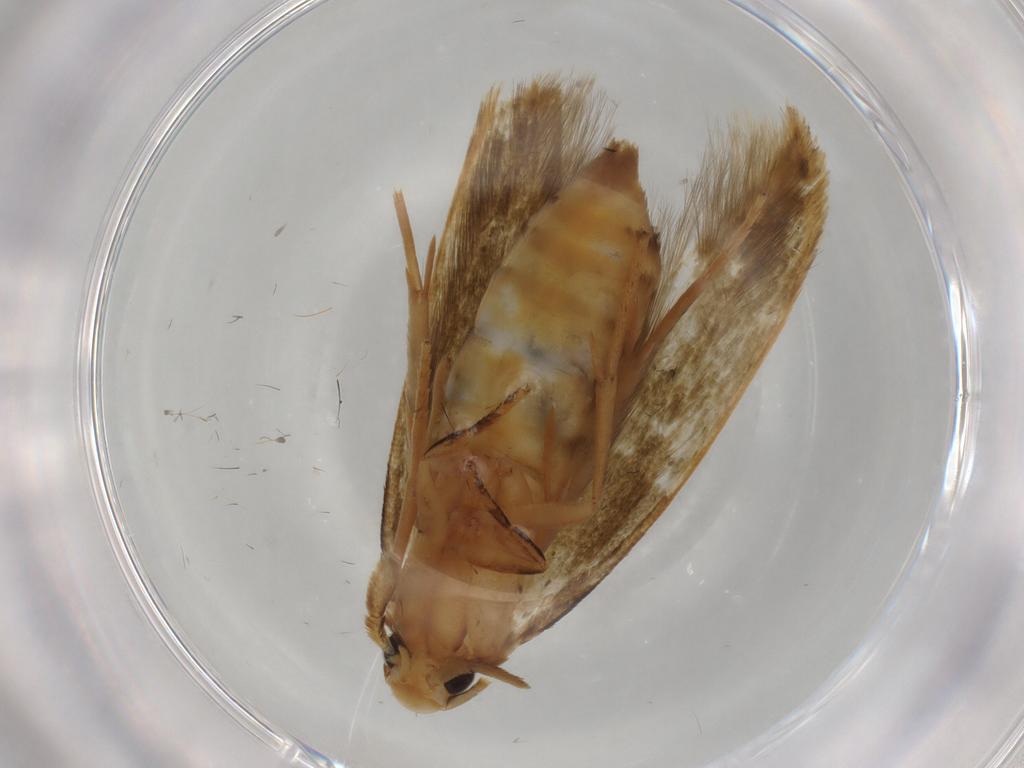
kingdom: Animalia
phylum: Arthropoda
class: Insecta
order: Lepidoptera
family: Tineidae
